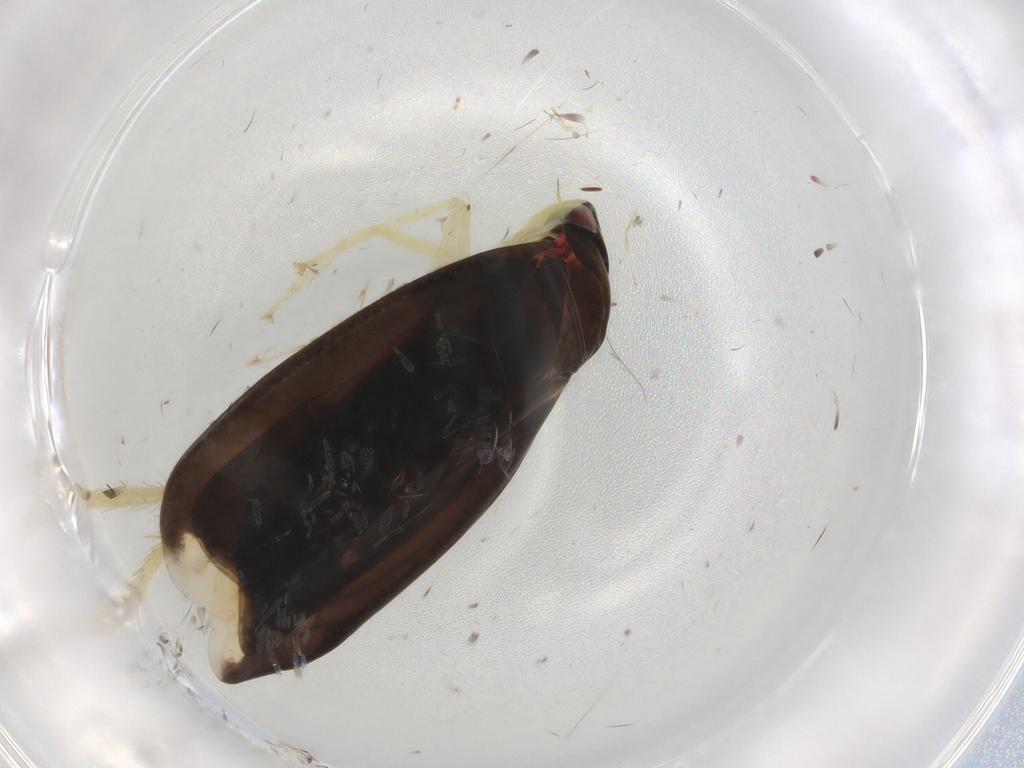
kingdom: Animalia
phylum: Arthropoda
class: Insecta
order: Hemiptera
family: Cicadellidae
